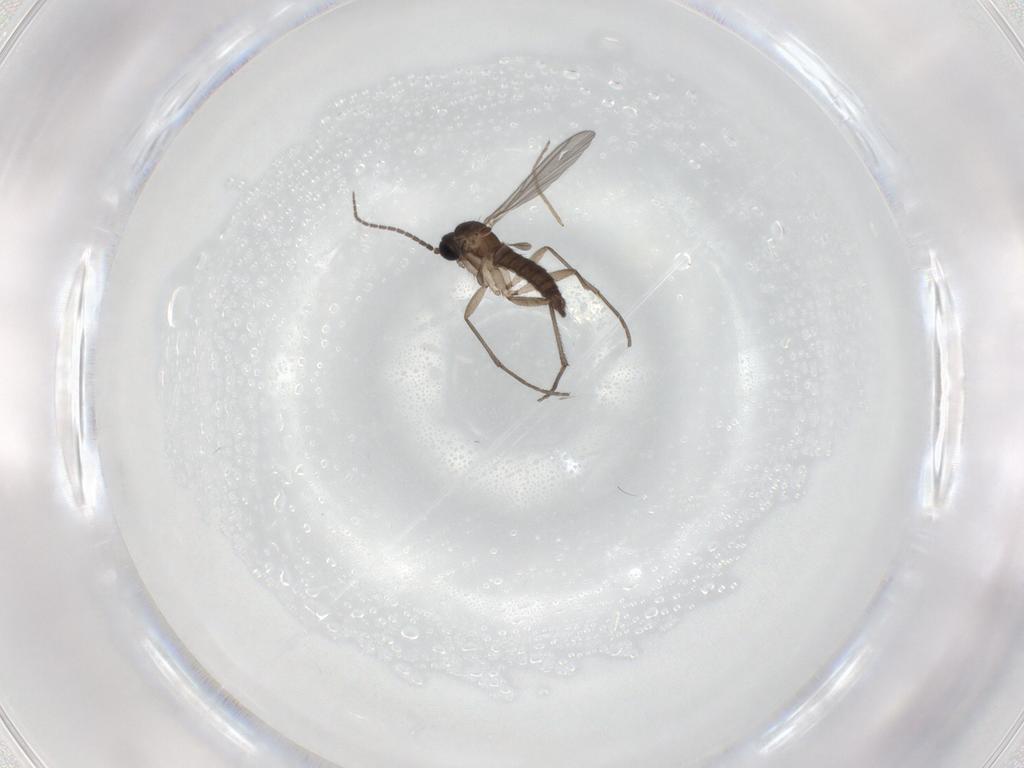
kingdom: Animalia
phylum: Arthropoda
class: Insecta
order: Diptera
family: Sciaridae
